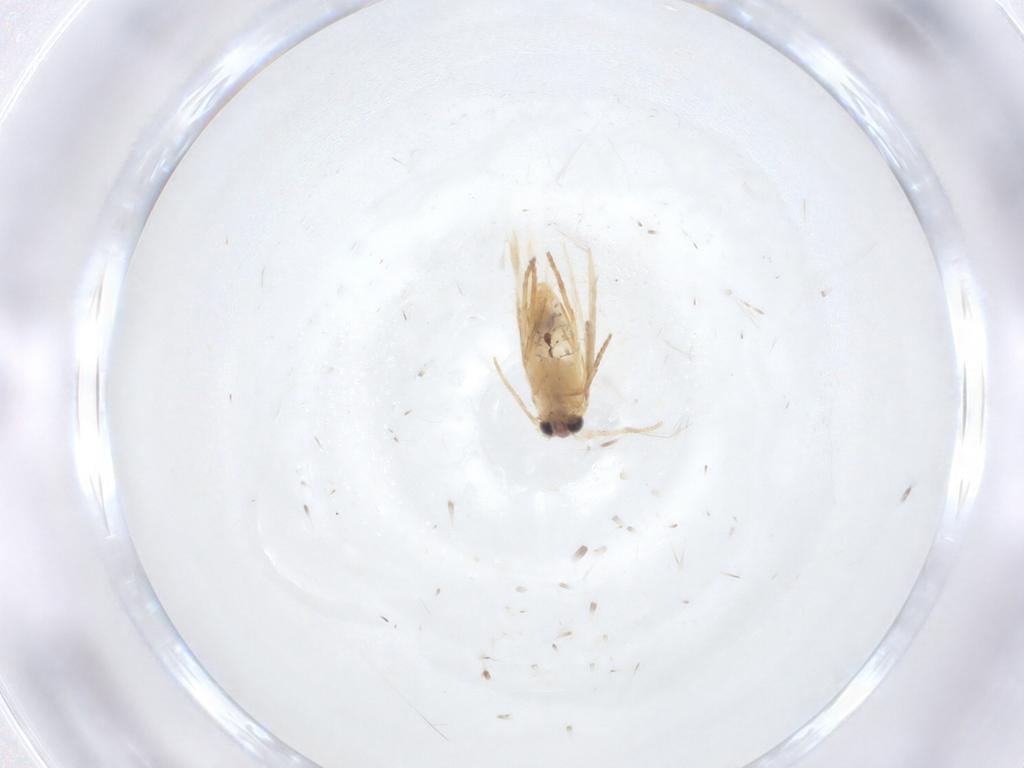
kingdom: Animalia
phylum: Arthropoda
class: Insecta
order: Lepidoptera
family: Nepticulidae
